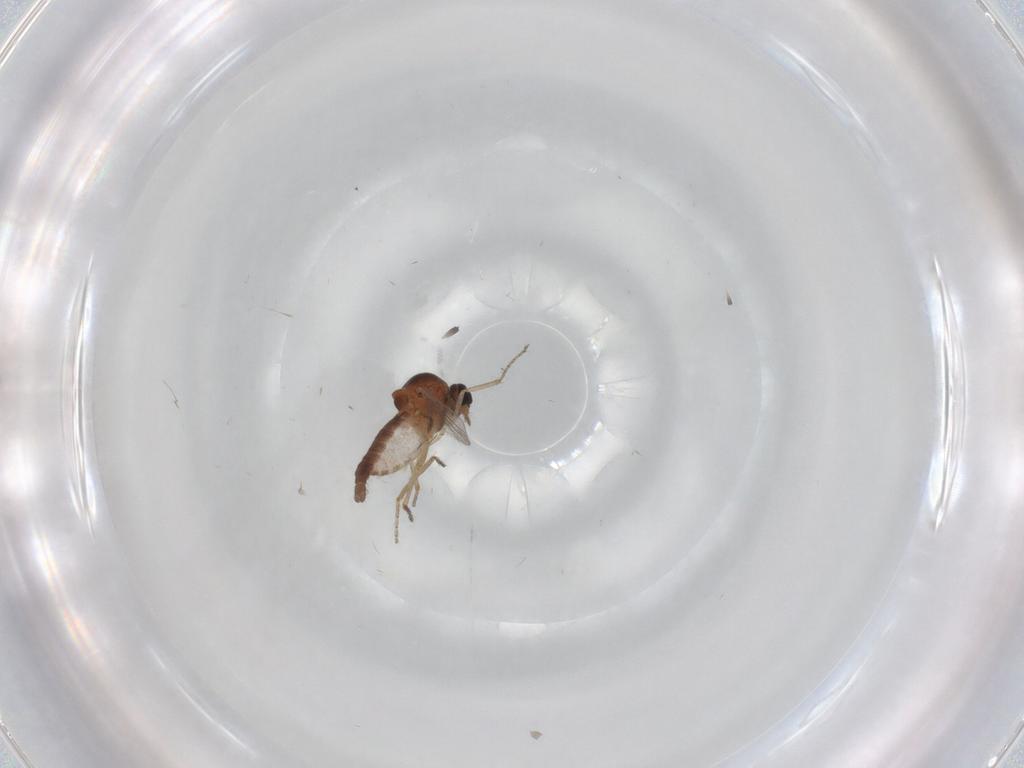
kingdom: Animalia
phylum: Arthropoda
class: Insecta
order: Diptera
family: Ceratopogonidae
